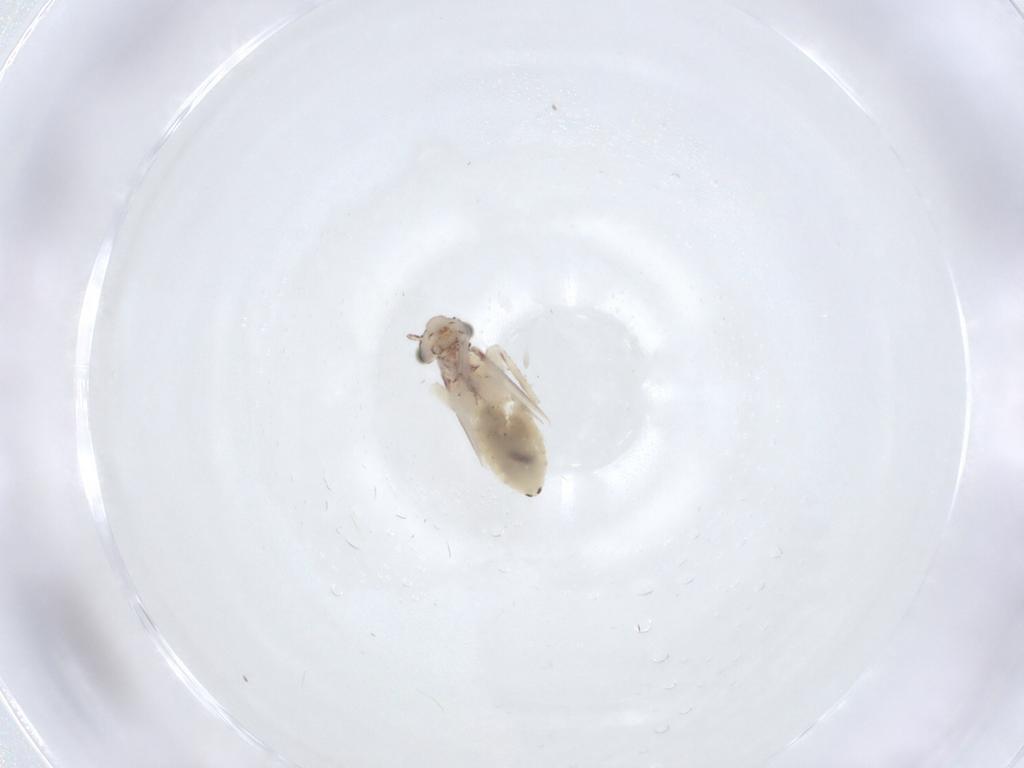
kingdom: Animalia
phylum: Arthropoda
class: Insecta
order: Psocodea
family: Lepidopsocidae
